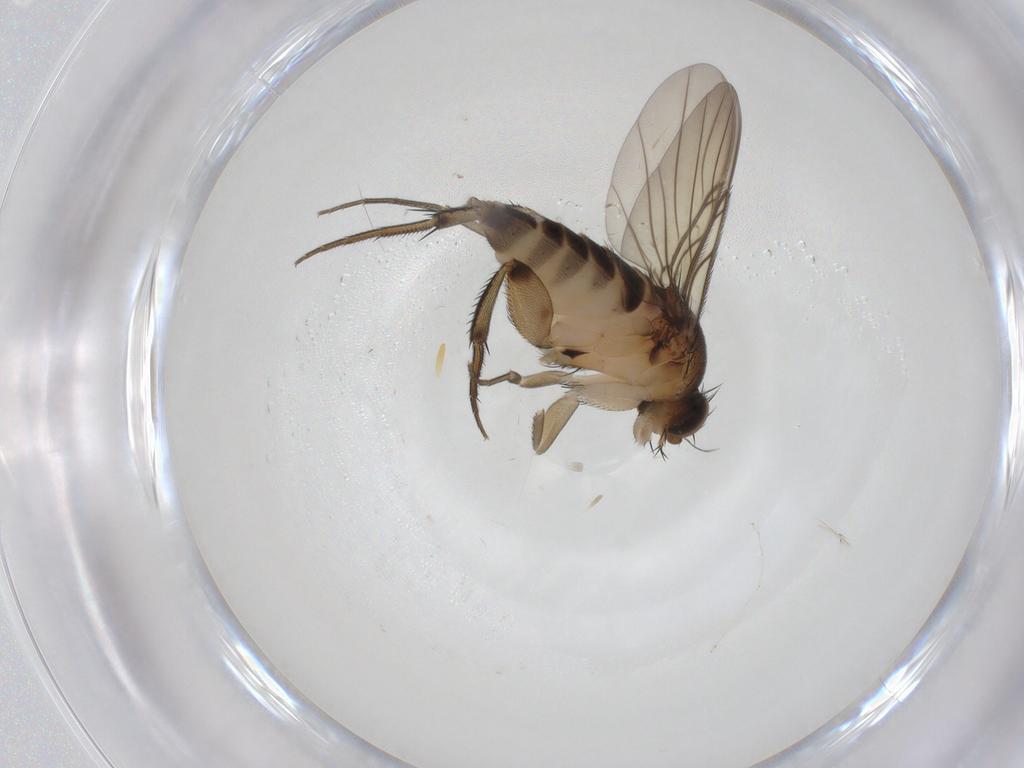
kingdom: Animalia
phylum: Arthropoda
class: Insecta
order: Diptera
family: Cecidomyiidae
